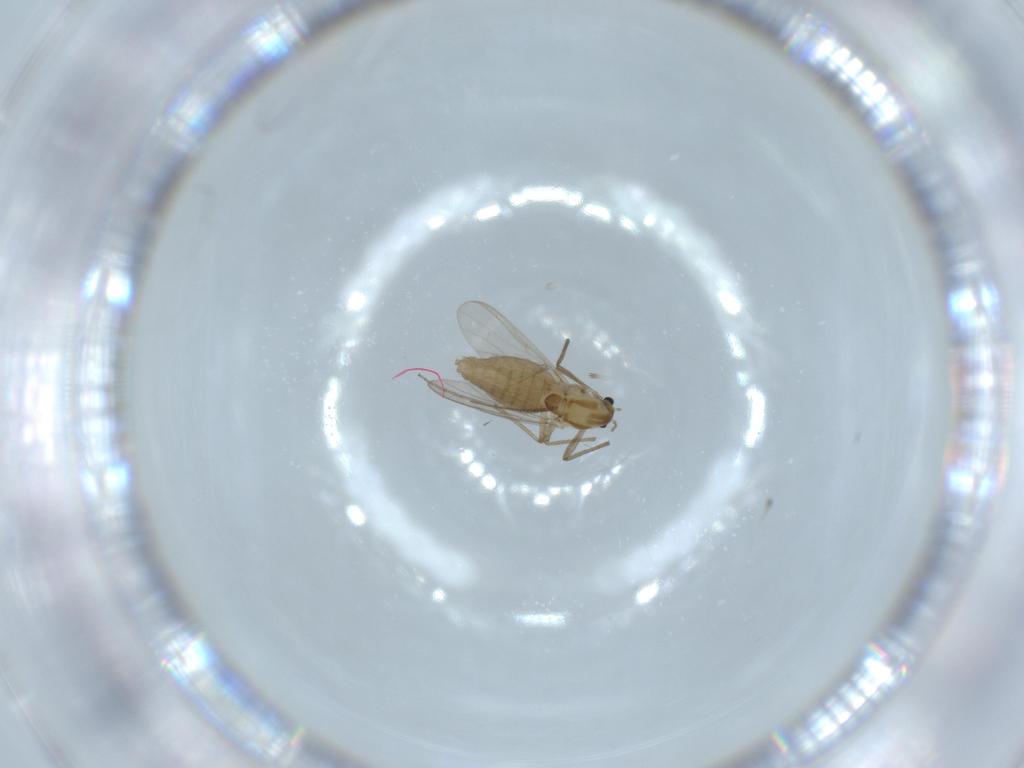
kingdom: Animalia
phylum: Arthropoda
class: Insecta
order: Diptera
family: Chironomidae
